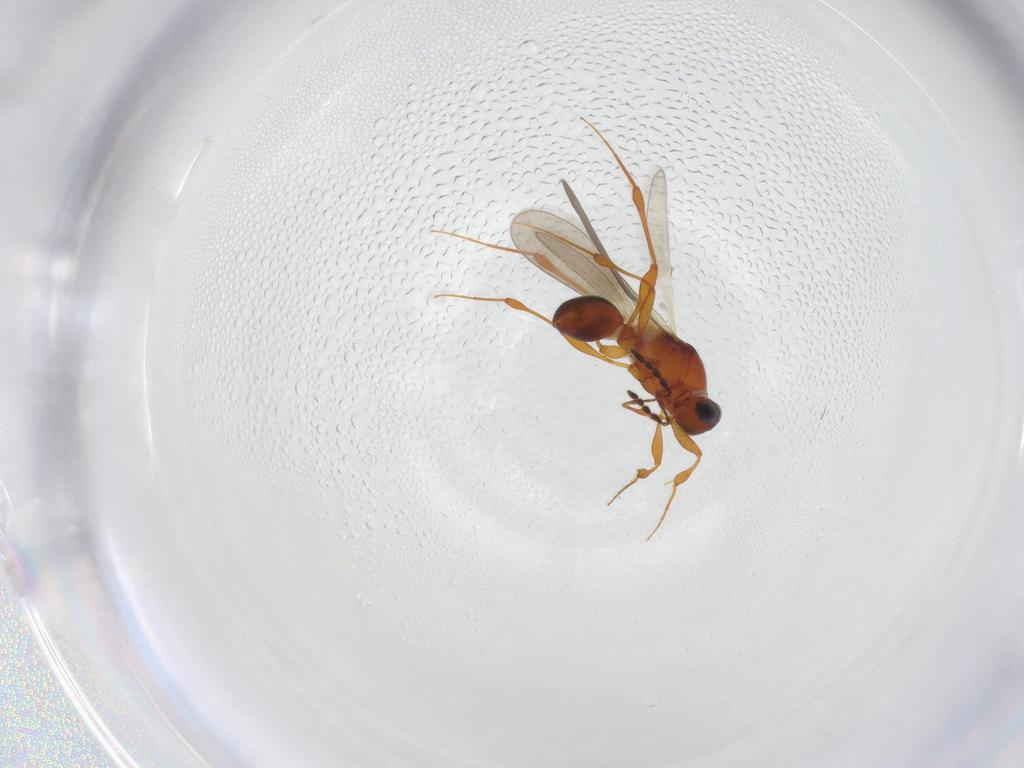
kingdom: Animalia
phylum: Arthropoda
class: Insecta
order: Hymenoptera
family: Platygastridae
